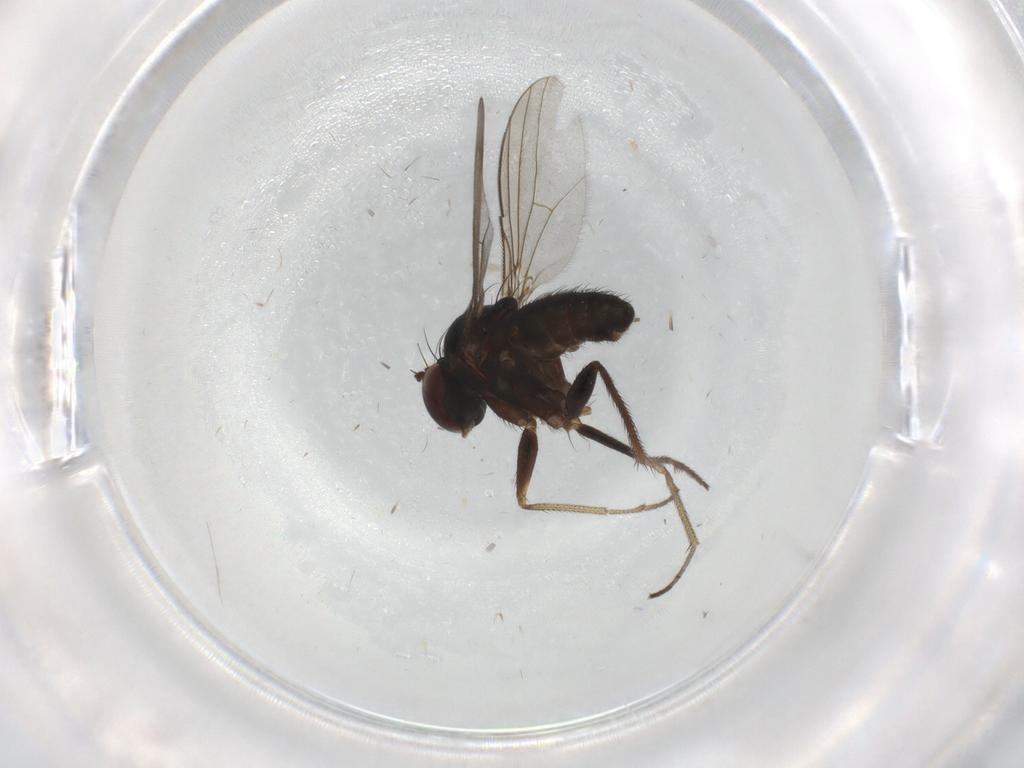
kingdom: Animalia
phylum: Arthropoda
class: Insecta
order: Diptera
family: Dolichopodidae
